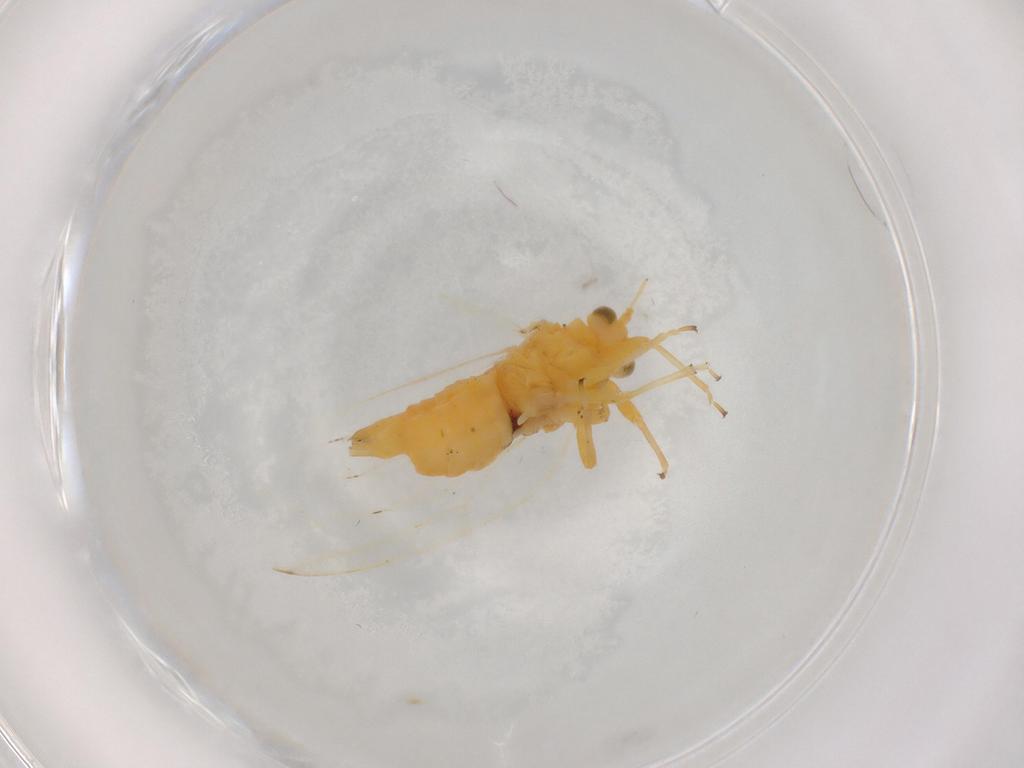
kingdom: Animalia
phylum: Arthropoda
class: Insecta
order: Hemiptera
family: Aphalaridae
